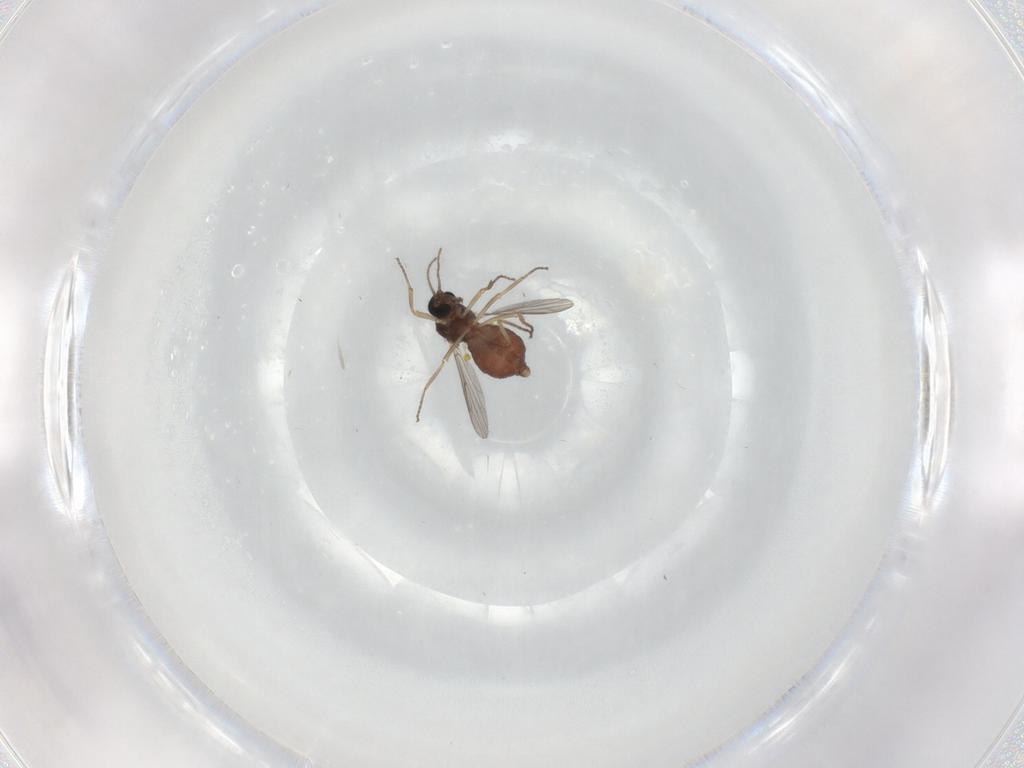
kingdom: Animalia
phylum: Arthropoda
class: Insecta
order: Diptera
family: Ceratopogonidae
